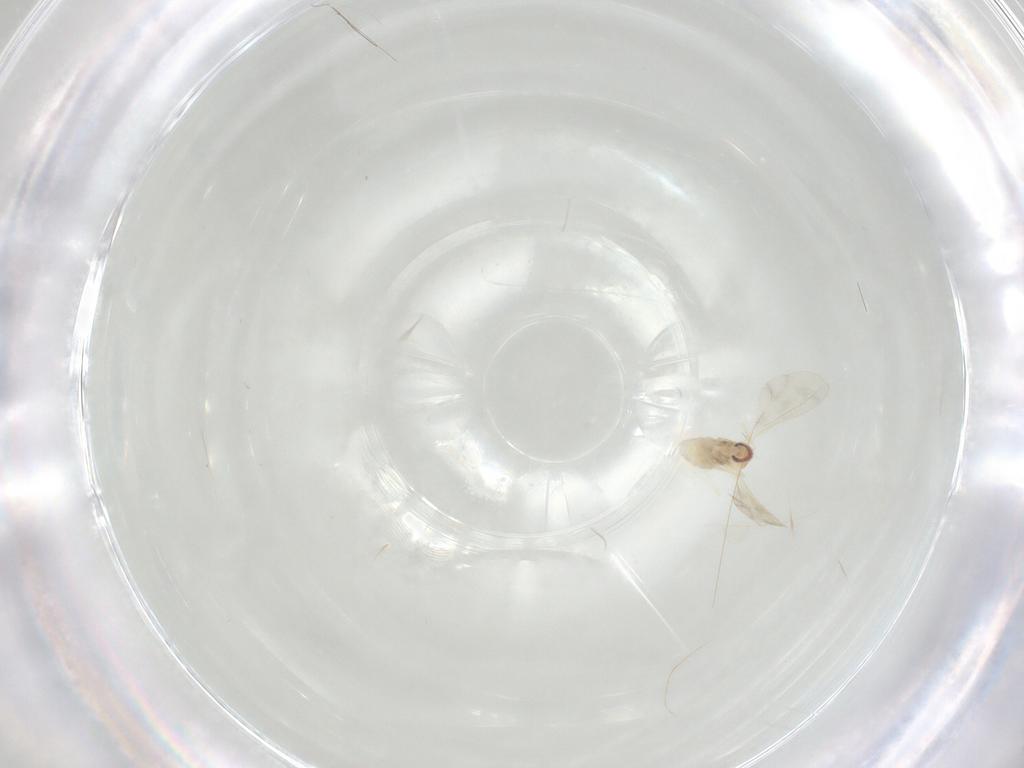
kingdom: Animalia
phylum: Arthropoda
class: Insecta
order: Diptera
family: Cecidomyiidae
